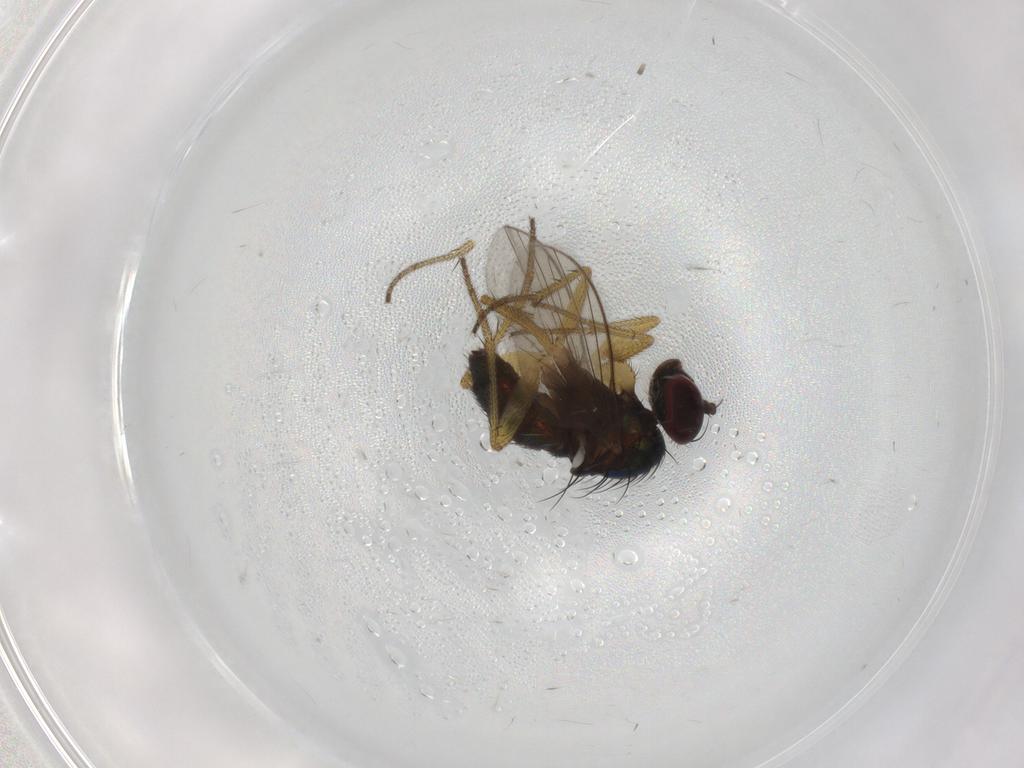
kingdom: Animalia
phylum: Arthropoda
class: Insecta
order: Diptera
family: Dolichopodidae
